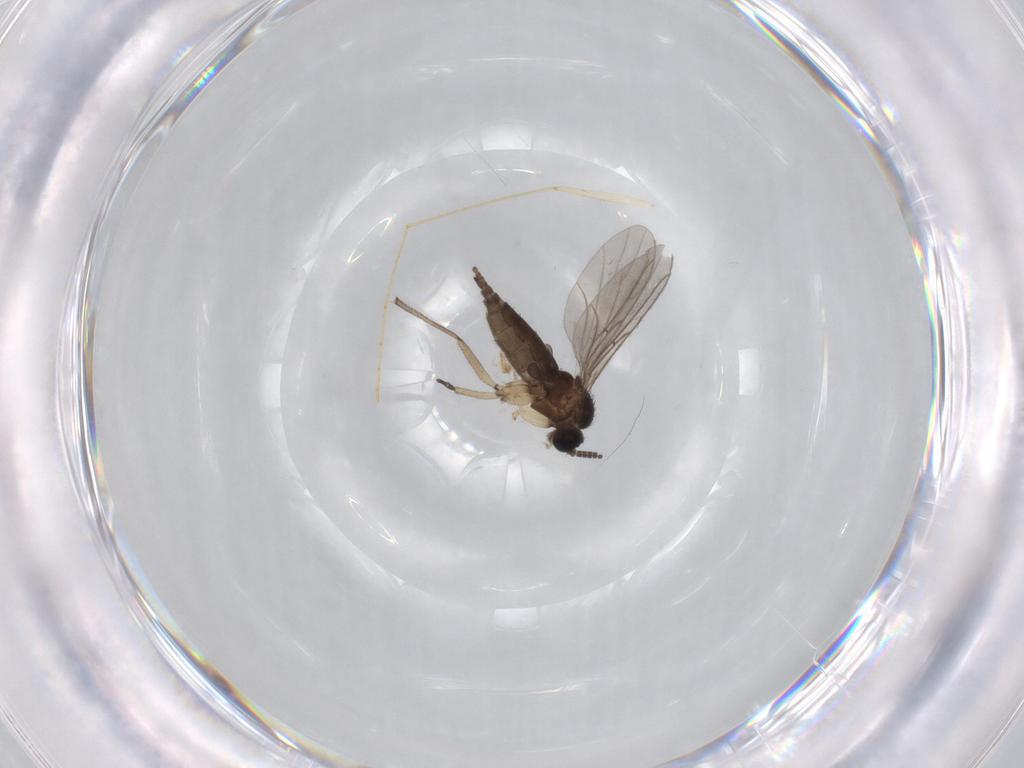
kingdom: Animalia
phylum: Arthropoda
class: Insecta
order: Diptera
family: Sciaridae
